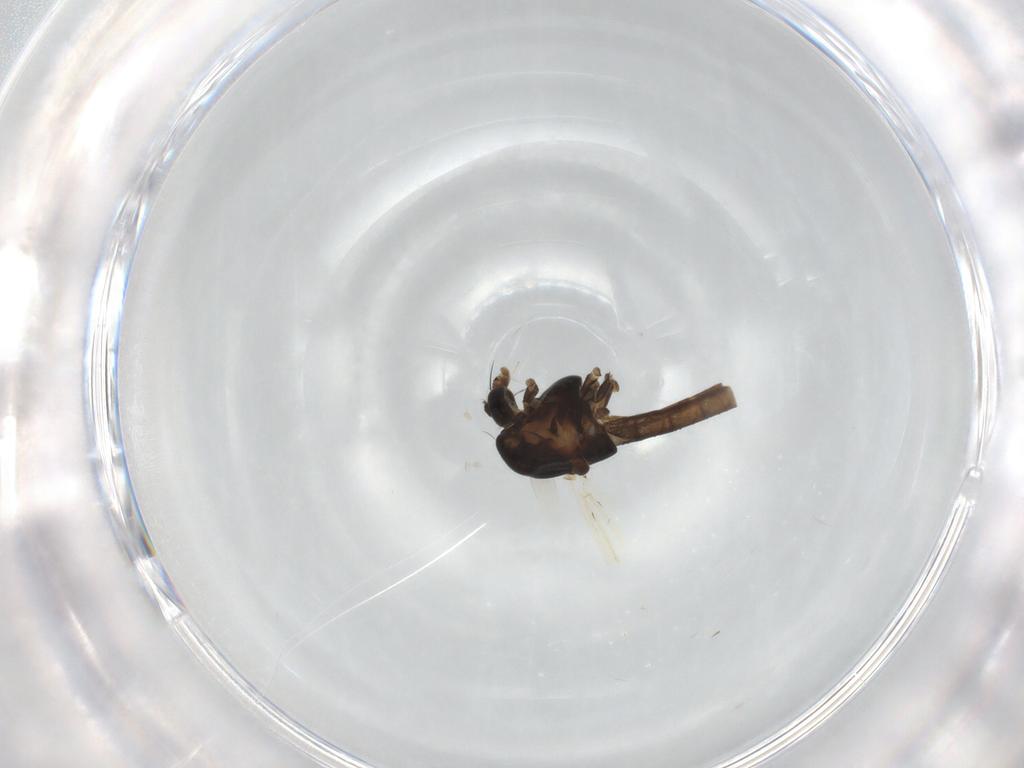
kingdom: Animalia
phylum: Arthropoda
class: Insecta
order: Diptera
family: Chironomidae
